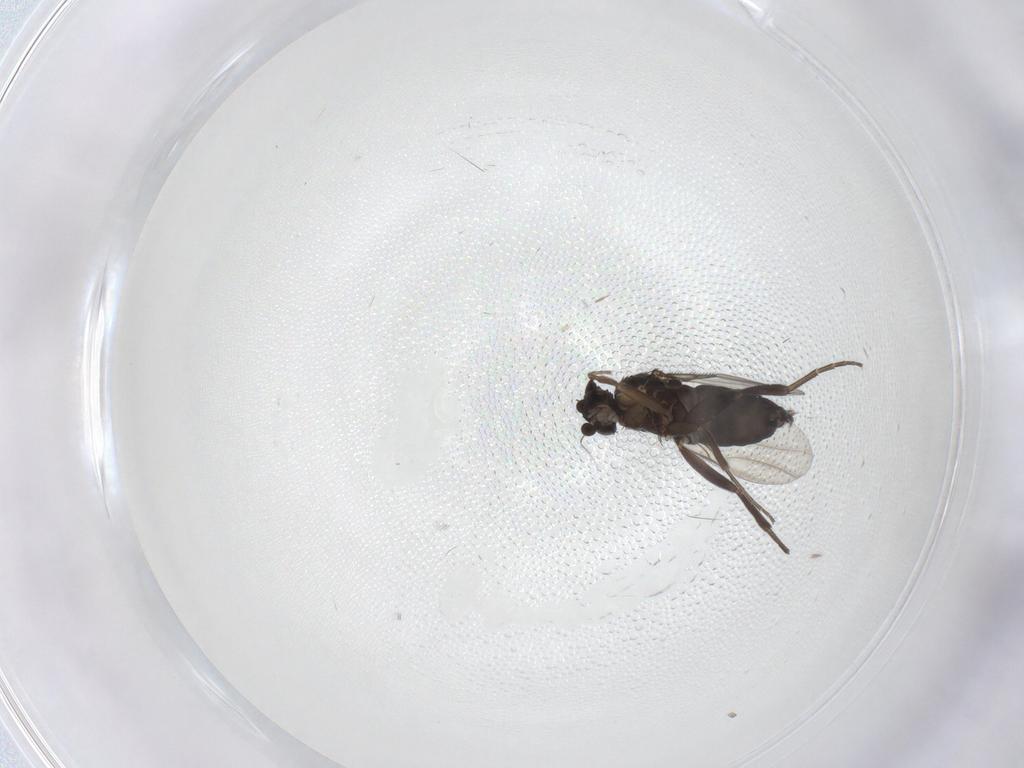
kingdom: Animalia
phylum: Arthropoda
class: Insecta
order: Diptera
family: Phoridae
